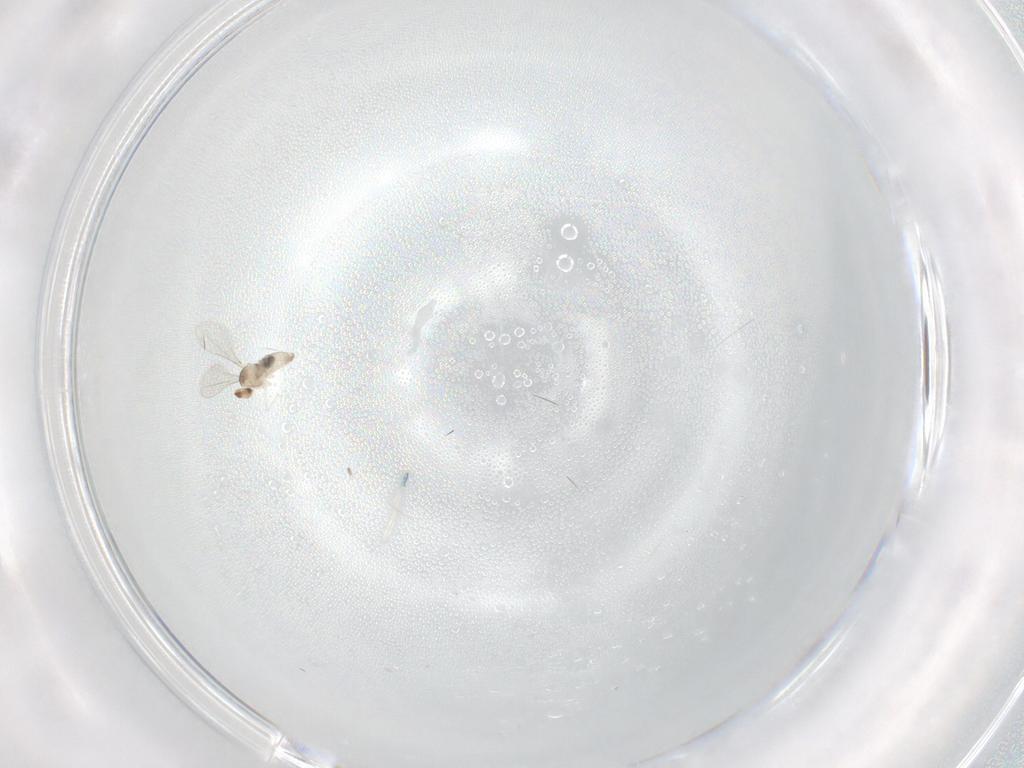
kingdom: Animalia
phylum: Arthropoda
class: Insecta
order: Diptera
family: Cecidomyiidae
